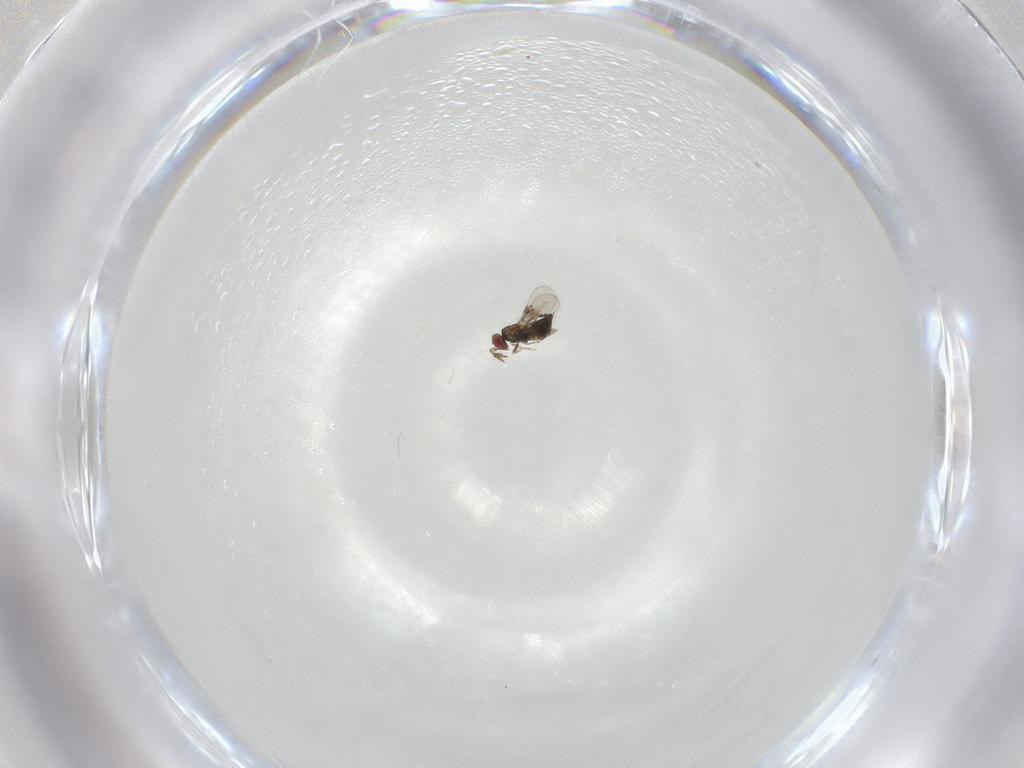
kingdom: Animalia
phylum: Arthropoda
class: Insecta
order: Hymenoptera
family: Scelionidae
